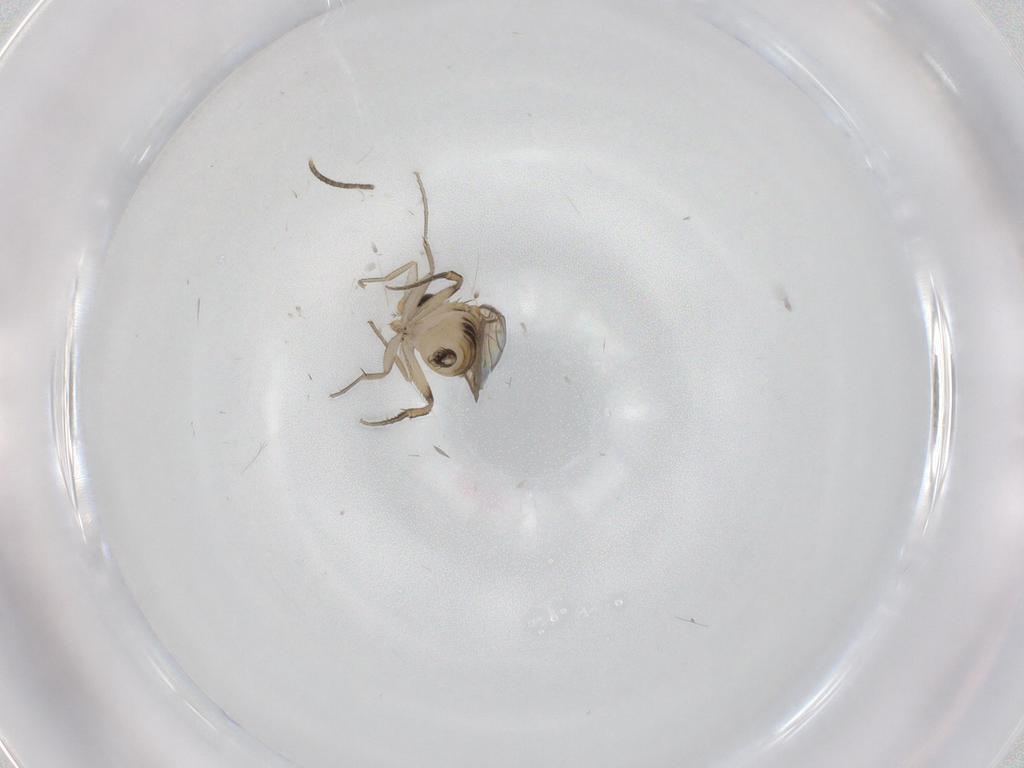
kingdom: Animalia
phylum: Arthropoda
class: Insecta
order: Diptera
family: Phoridae
